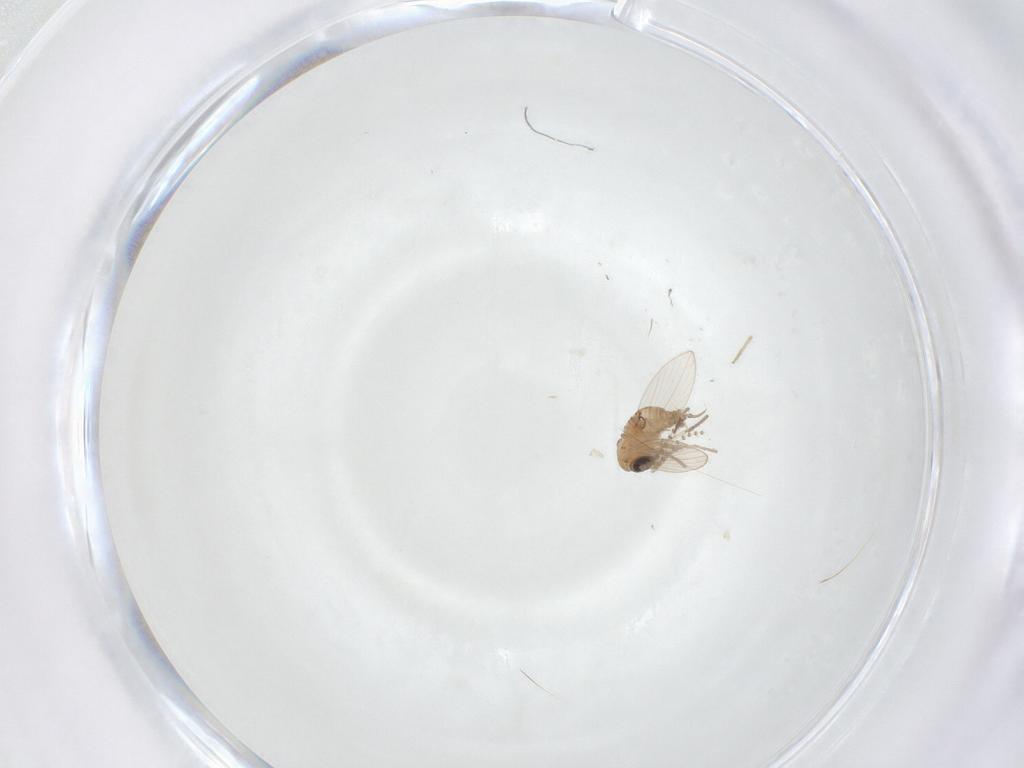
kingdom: Animalia
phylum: Arthropoda
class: Insecta
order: Diptera
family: Psychodidae
